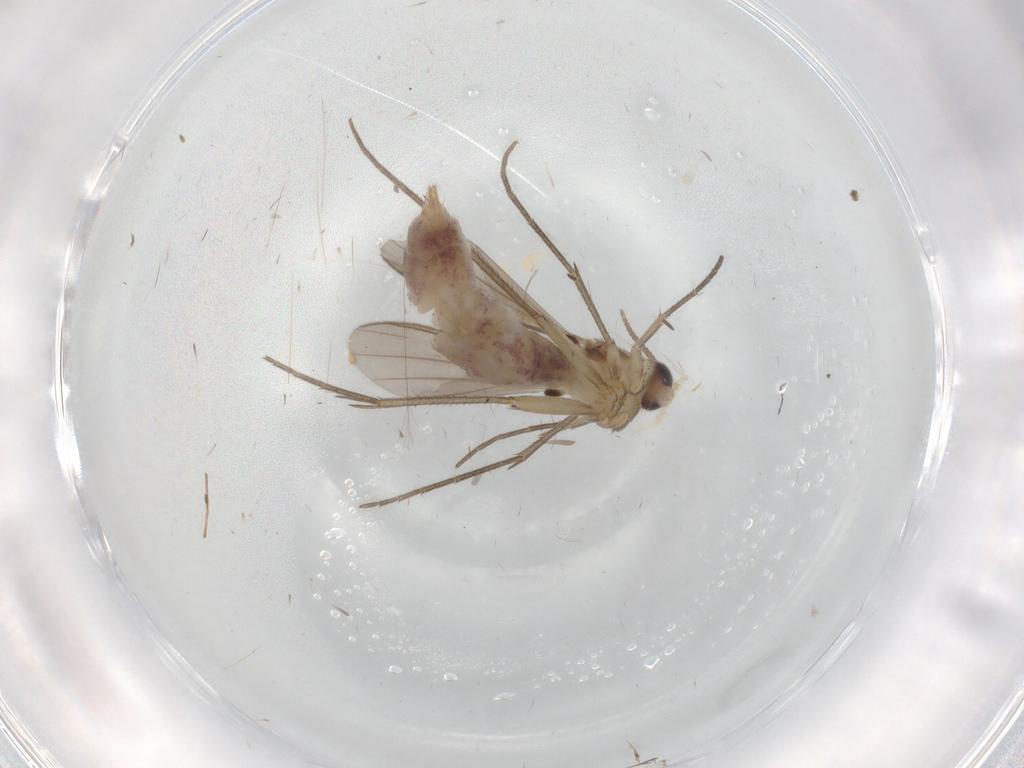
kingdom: Animalia
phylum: Arthropoda
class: Insecta
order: Diptera
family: Mycetophilidae
